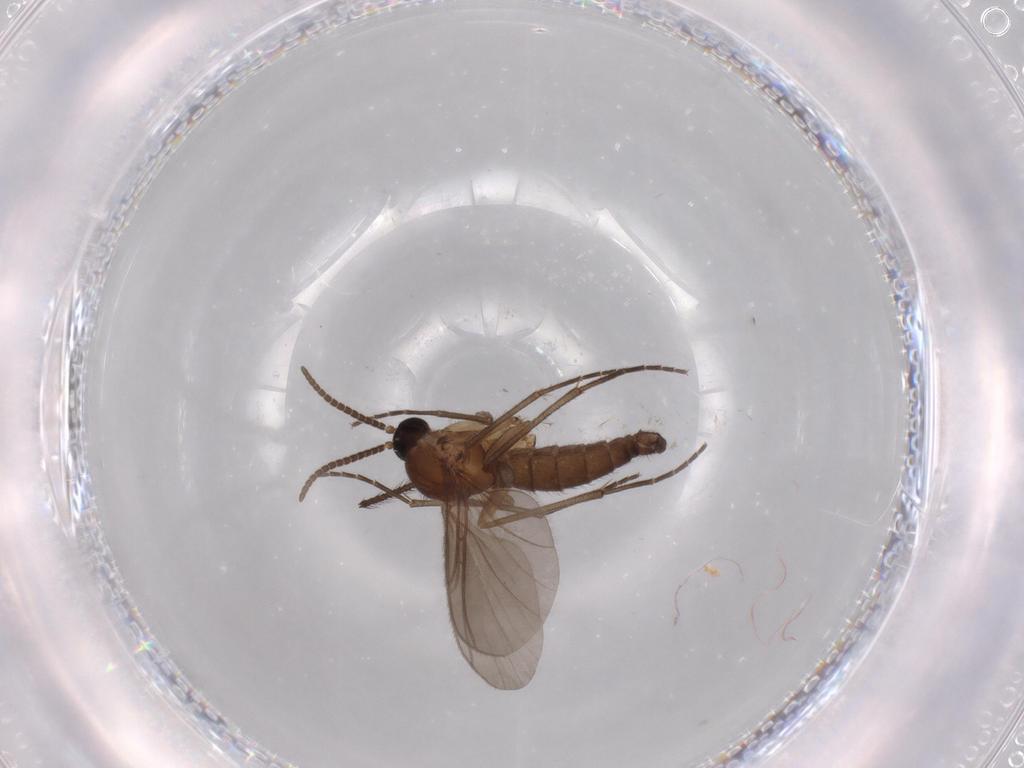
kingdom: Animalia
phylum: Arthropoda
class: Insecta
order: Diptera
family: Sciaridae
